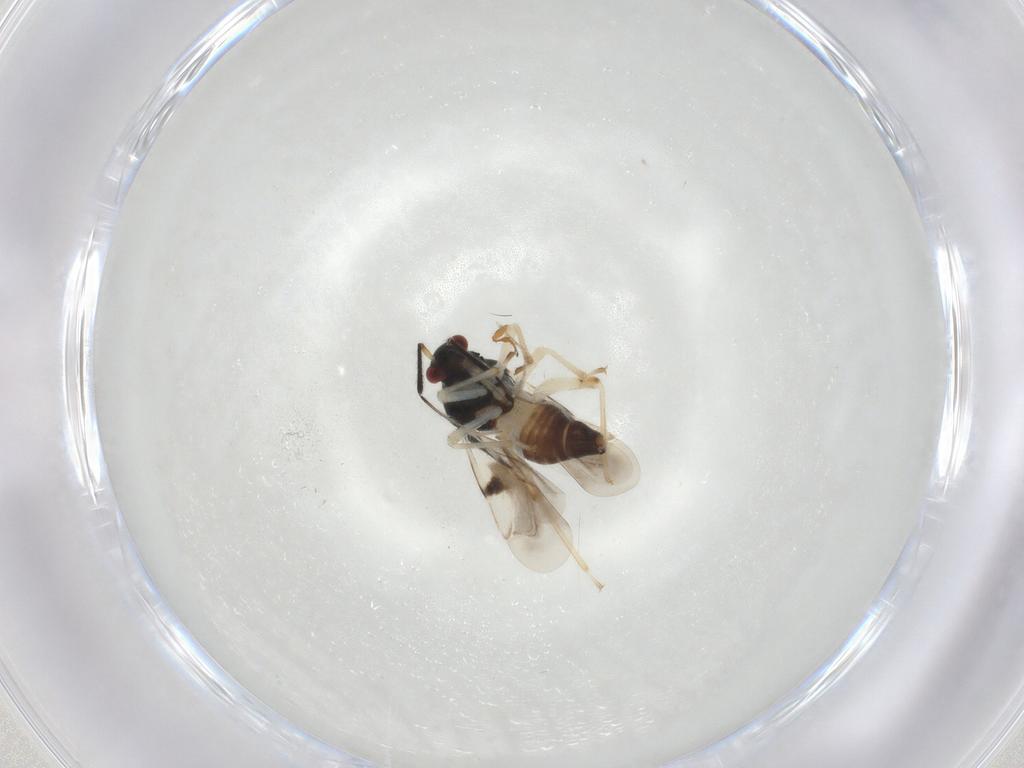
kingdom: Animalia
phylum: Arthropoda
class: Insecta
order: Hemiptera
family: Miridae
